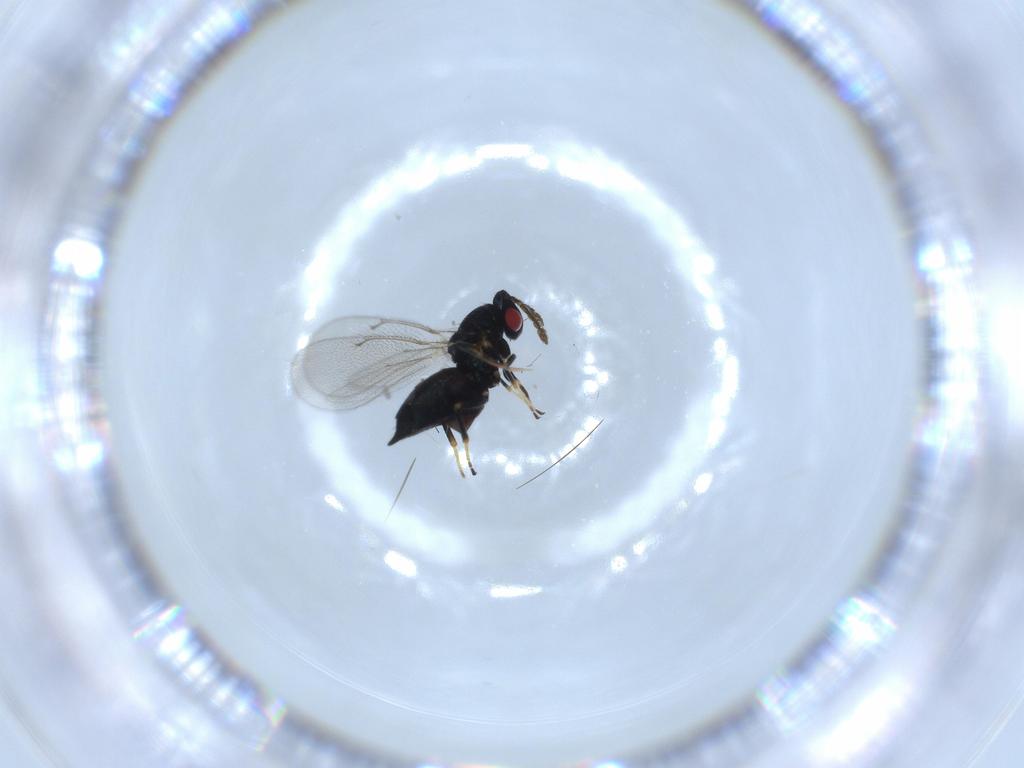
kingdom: Animalia
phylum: Arthropoda
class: Insecta
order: Hymenoptera
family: Eulophidae
